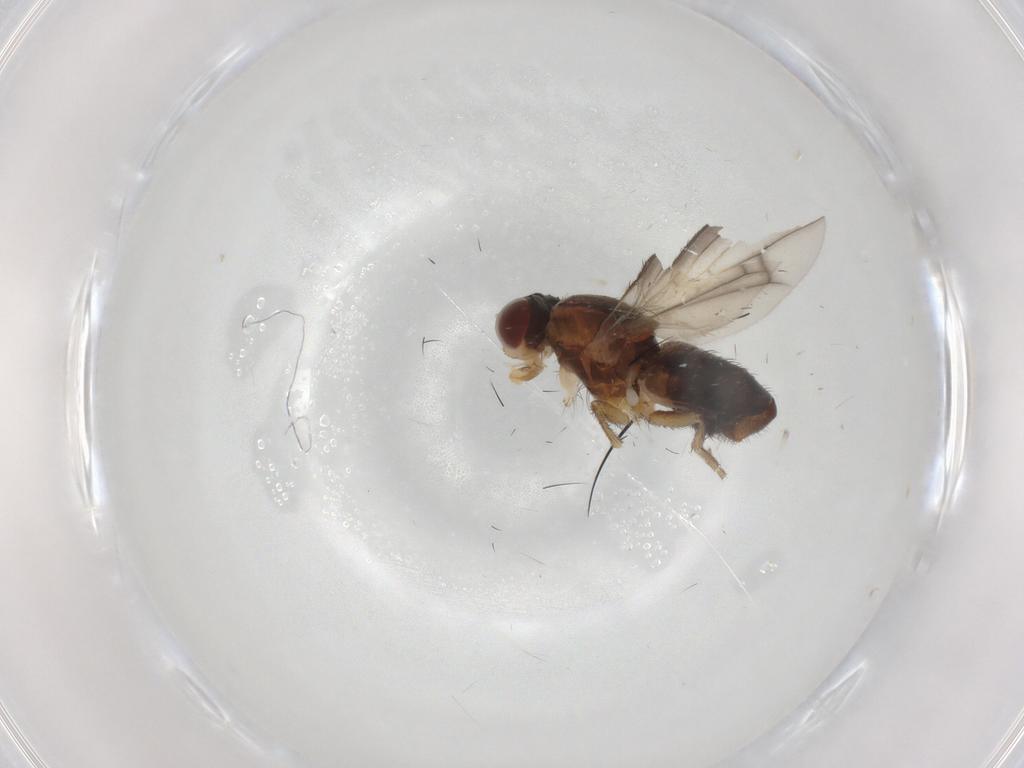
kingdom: Animalia
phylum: Arthropoda
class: Insecta
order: Diptera
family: Heleomyzidae
